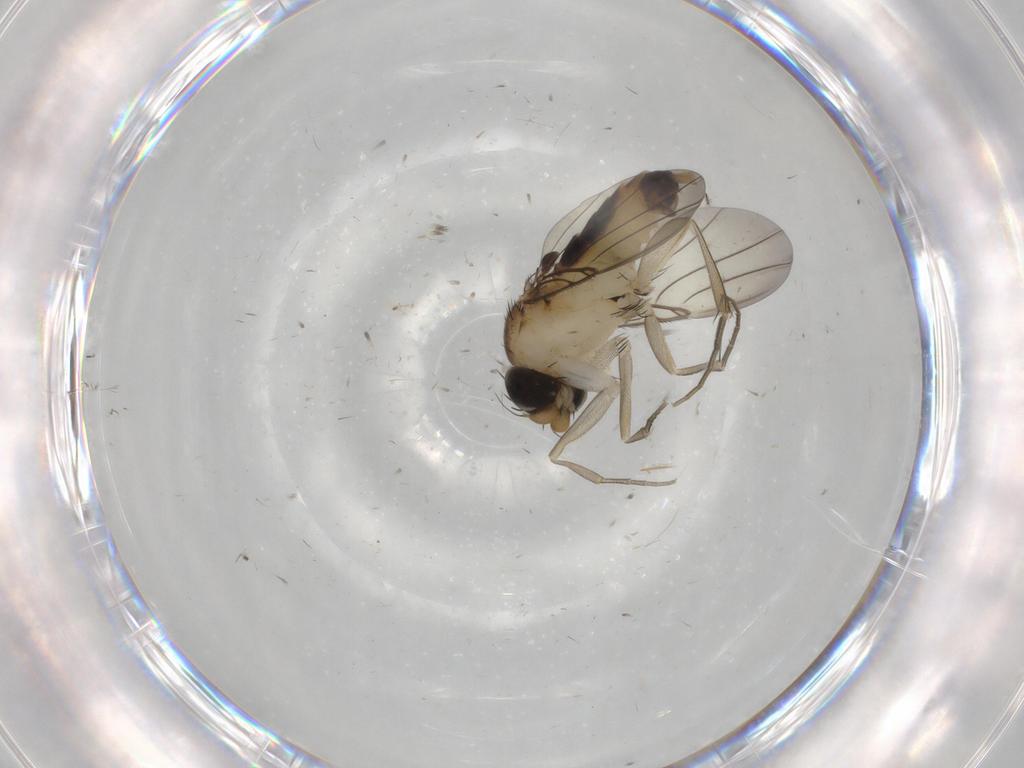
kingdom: Animalia
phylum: Arthropoda
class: Insecta
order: Diptera
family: Phoridae
